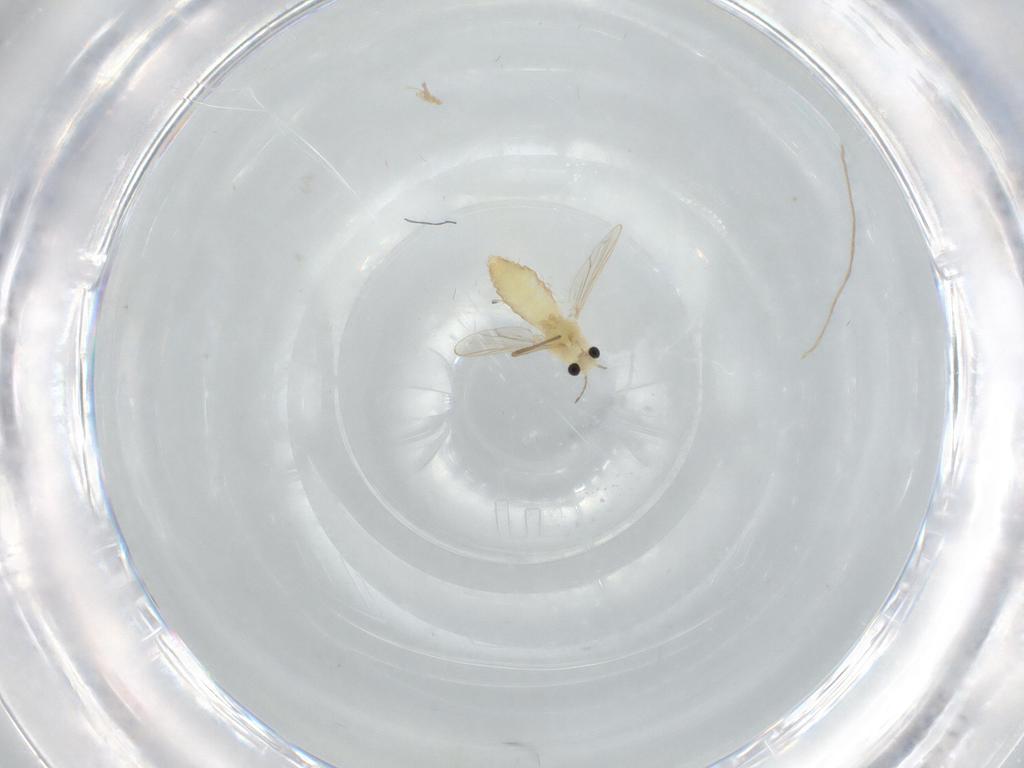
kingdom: Animalia
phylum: Arthropoda
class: Insecta
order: Diptera
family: Chironomidae
